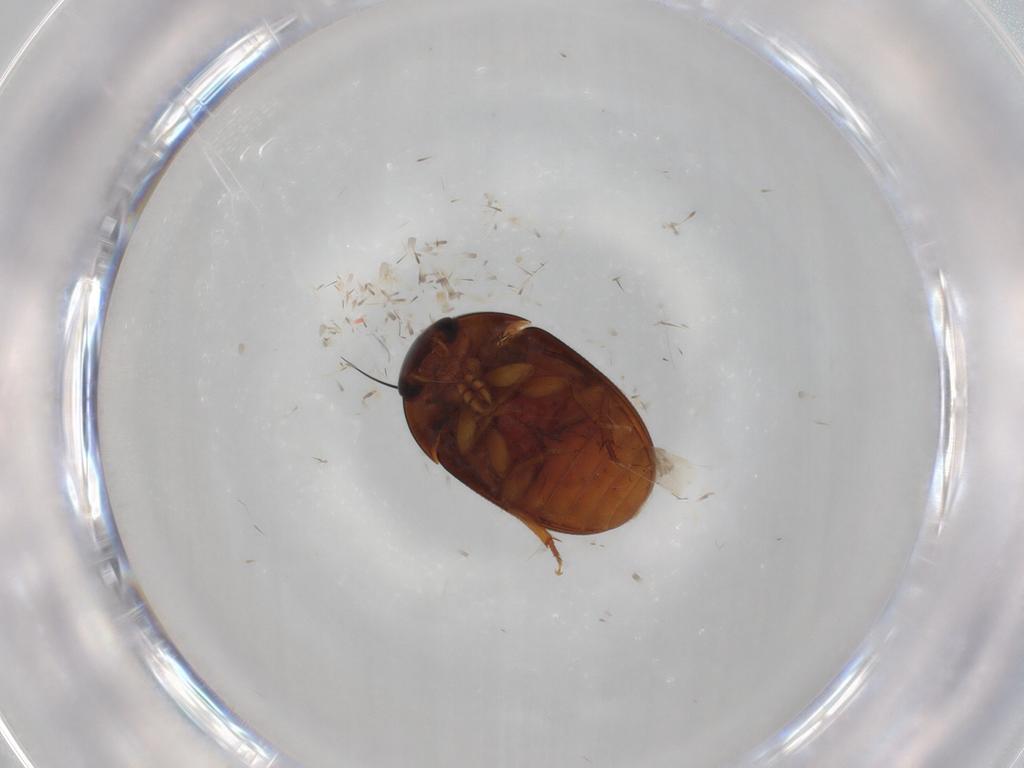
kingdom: Animalia
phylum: Arthropoda
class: Insecta
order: Coleoptera
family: Phalacridae
